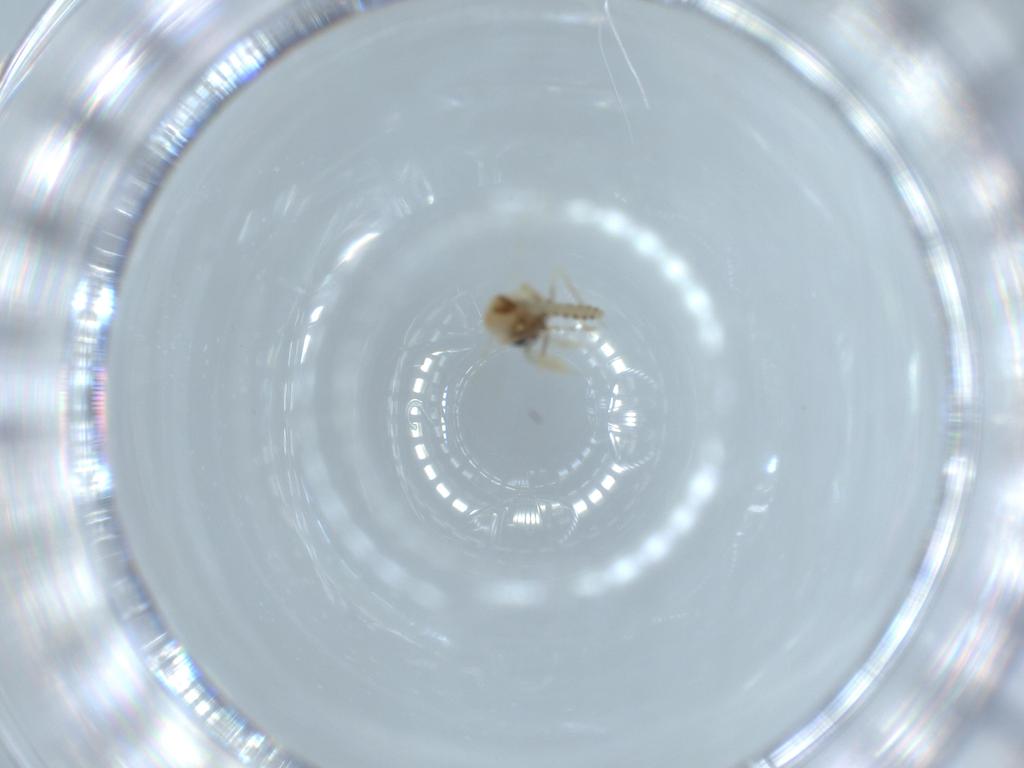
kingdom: Animalia
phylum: Arthropoda
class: Insecta
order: Diptera
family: Ceratopogonidae
